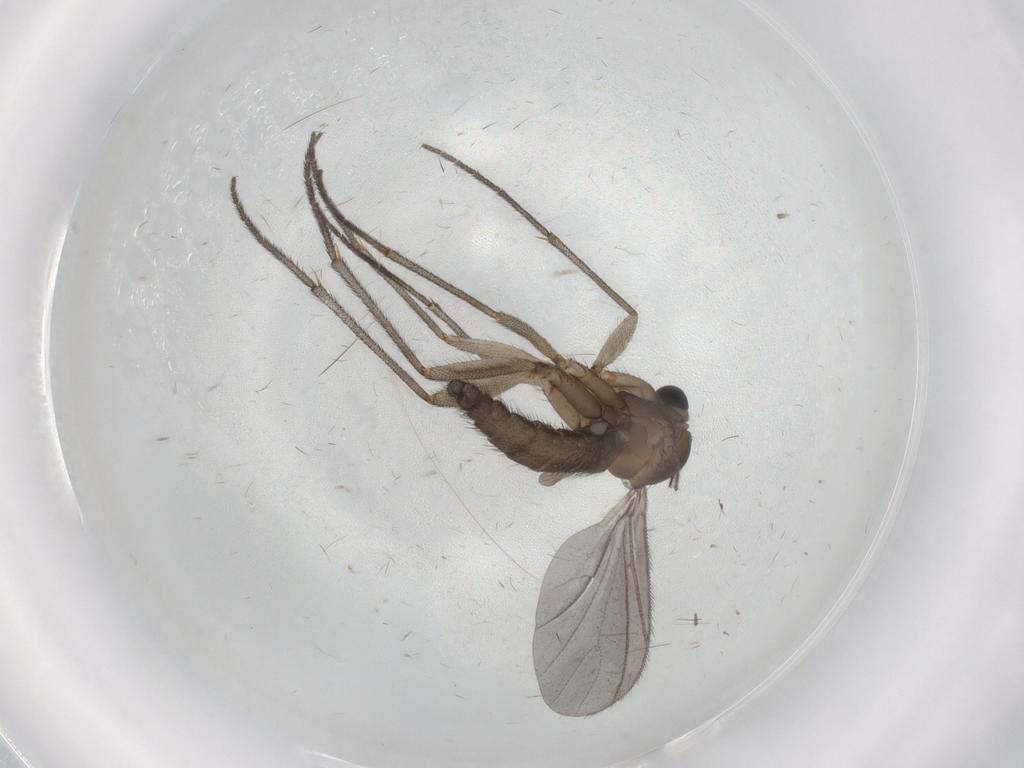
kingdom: Animalia
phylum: Arthropoda
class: Insecta
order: Diptera
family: Sciaridae
